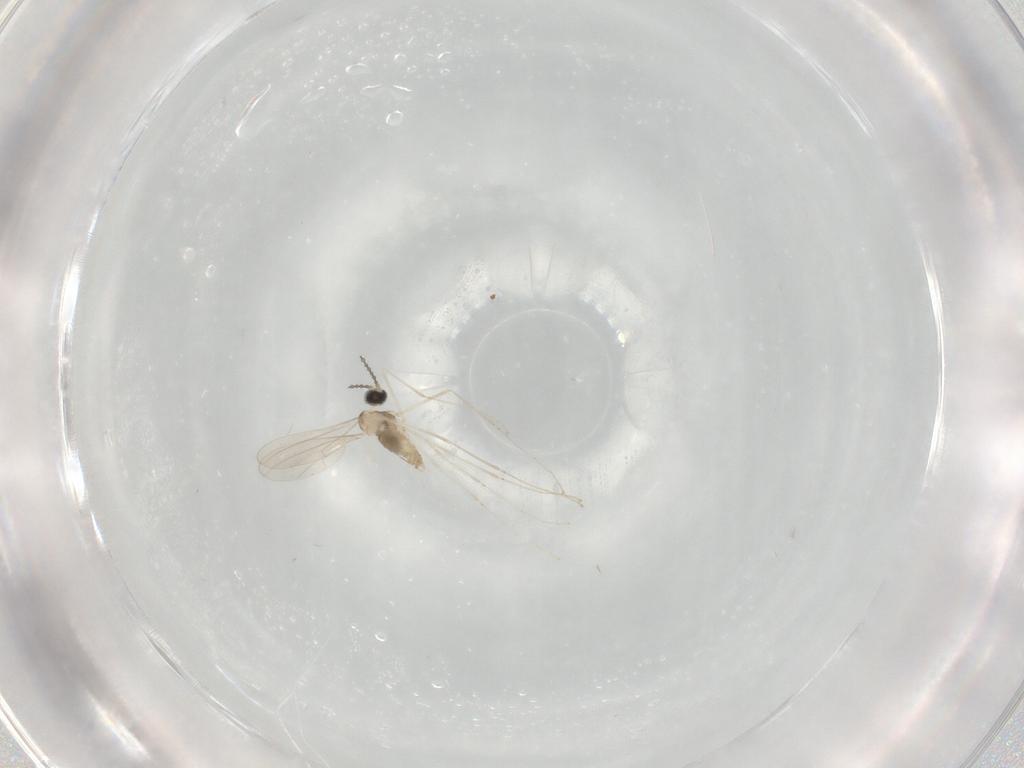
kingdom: Animalia
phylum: Arthropoda
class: Insecta
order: Diptera
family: Cecidomyiidae
